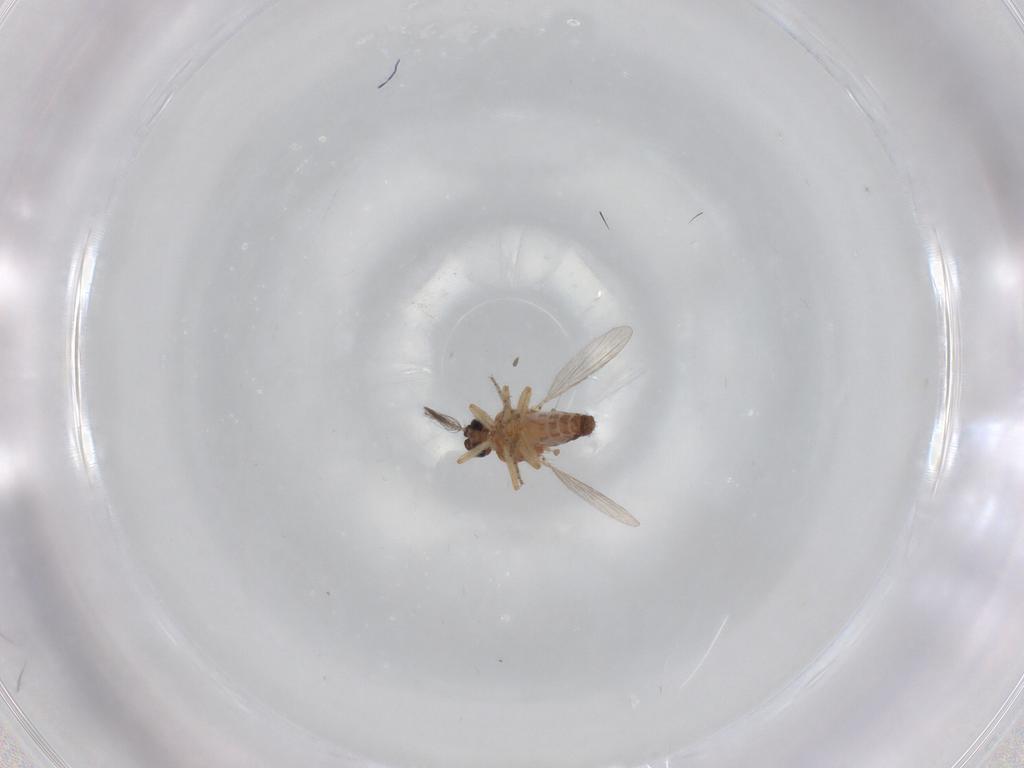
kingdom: Animalia
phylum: Arthropoda
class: Insecta
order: Diptera
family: Ceratopogonidae
